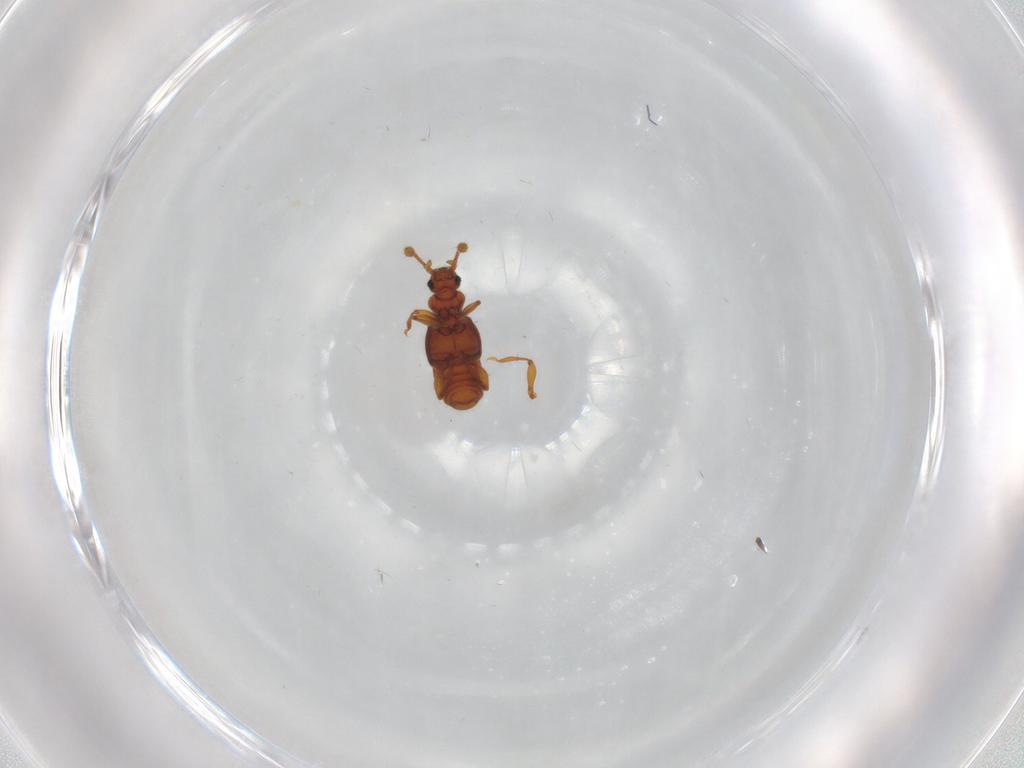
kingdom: Animalia
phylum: Arthropoda
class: Insecta
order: Coleoptera
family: Staphylinidae
